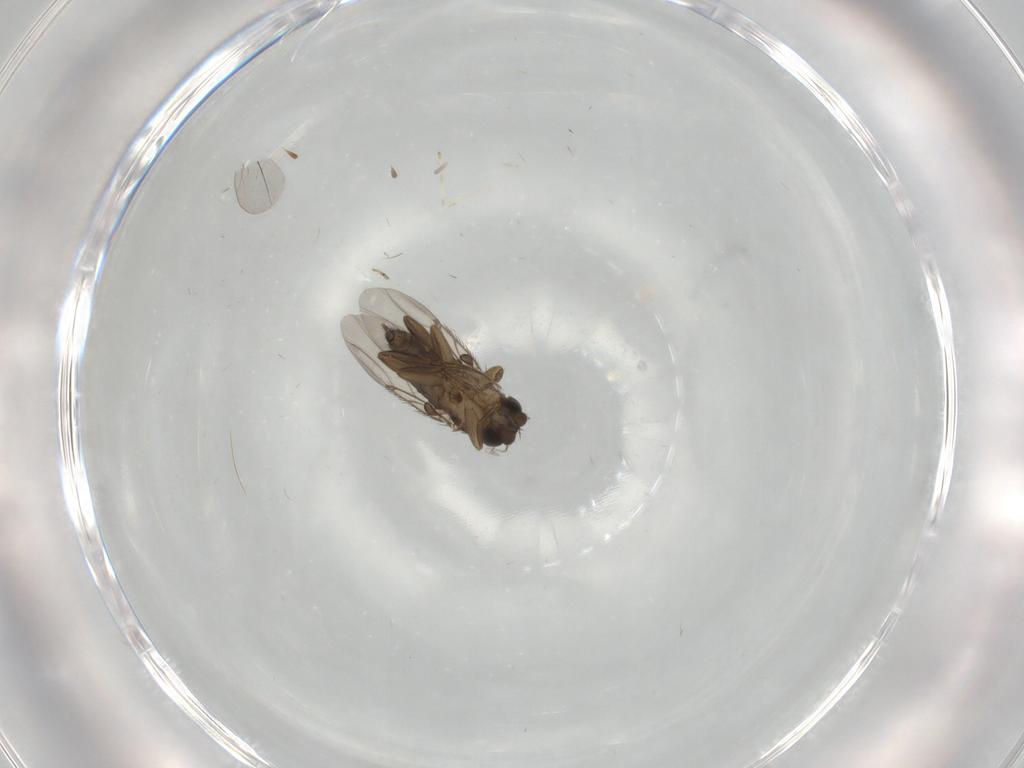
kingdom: Animalia
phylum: Arthropoda
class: Insecta
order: Diptera
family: Phoridae
